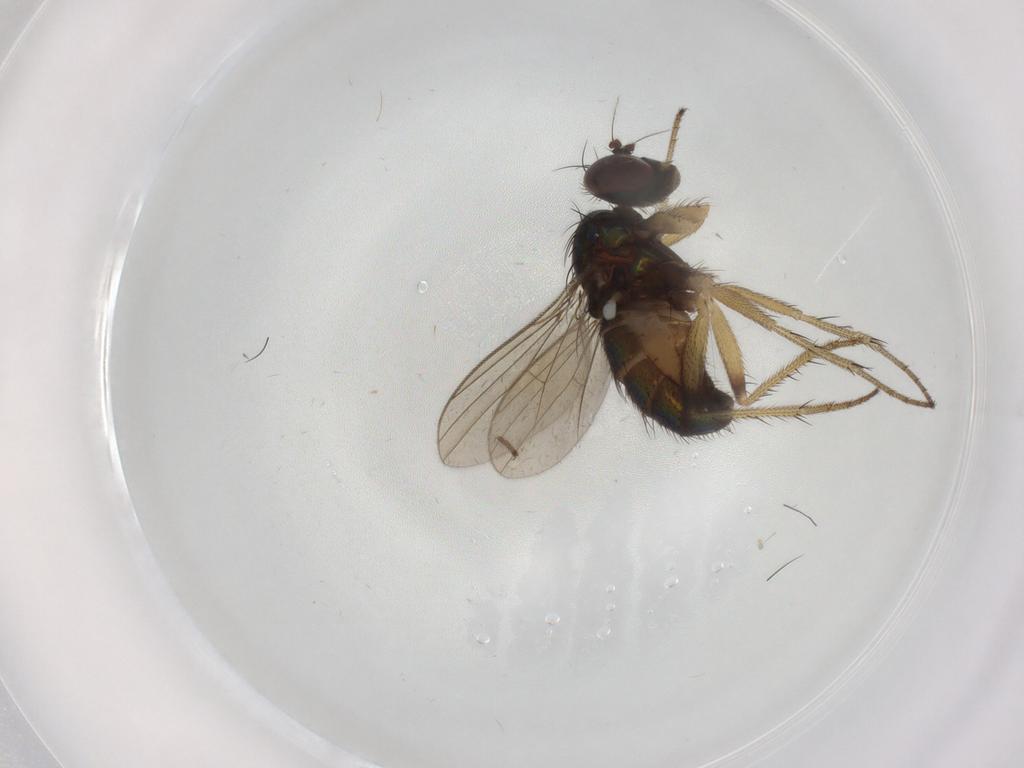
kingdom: Animalia
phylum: Arthropoda
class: Insecta
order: Diptera
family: Dolichopodidae
